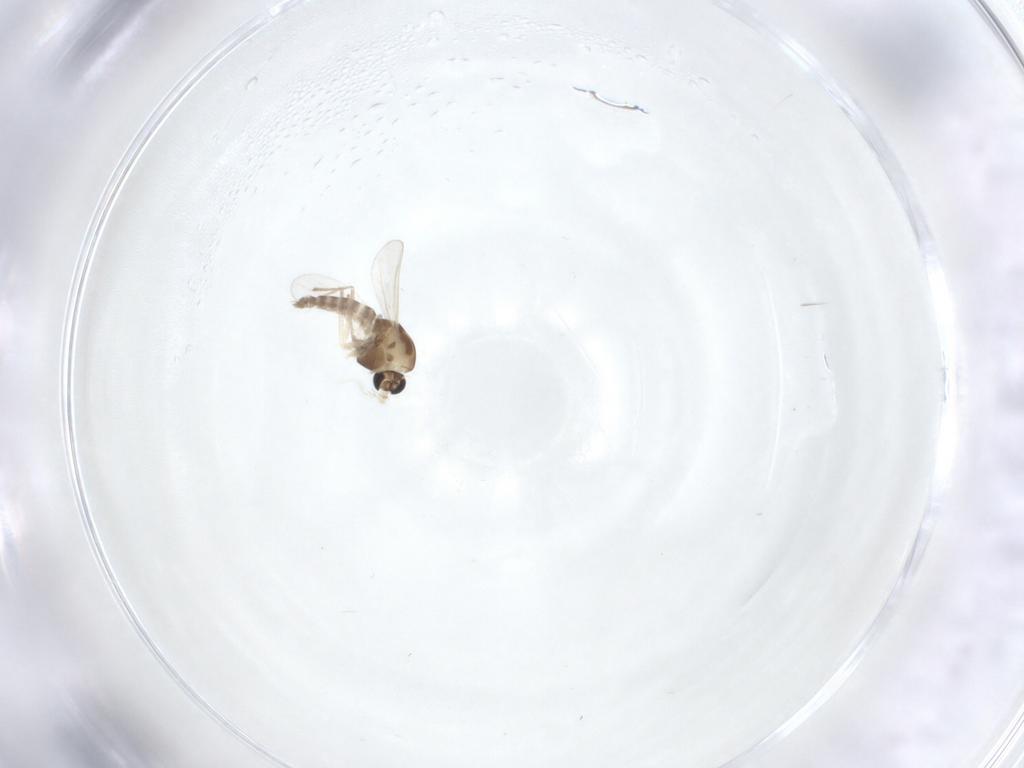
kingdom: Animalia
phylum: Arthropoda
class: Insecta
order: Diptera
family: Chironomidae
